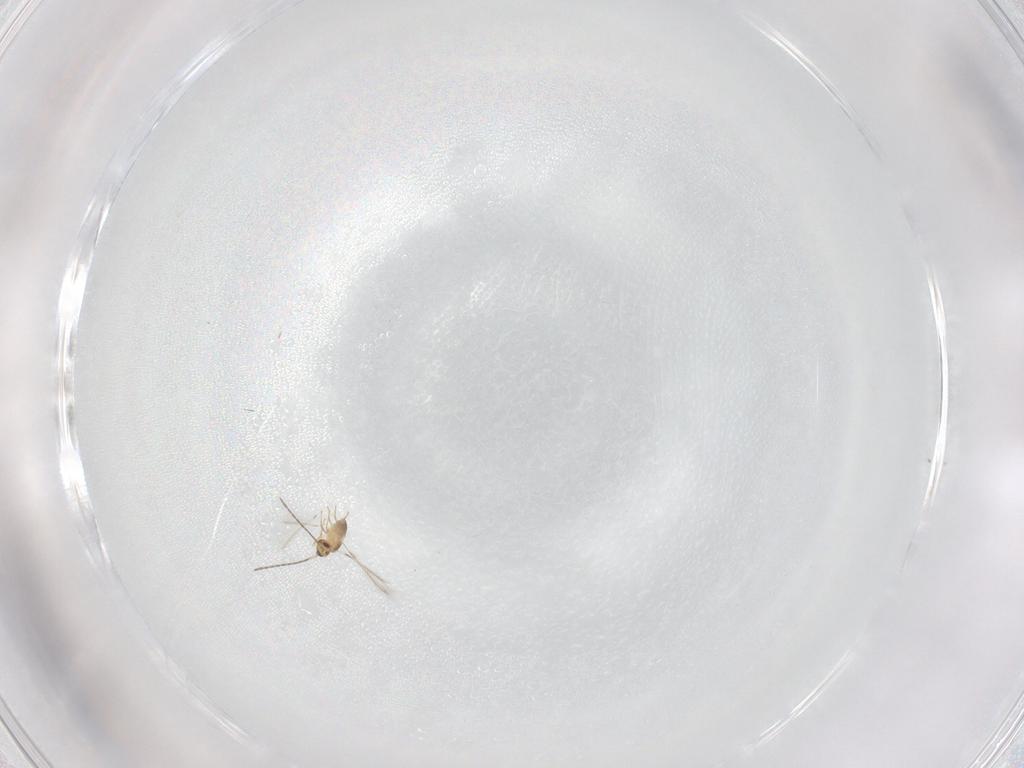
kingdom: Animalia
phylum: Arthropoda
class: Insecta
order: Hymenoptera
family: Mymaridae
